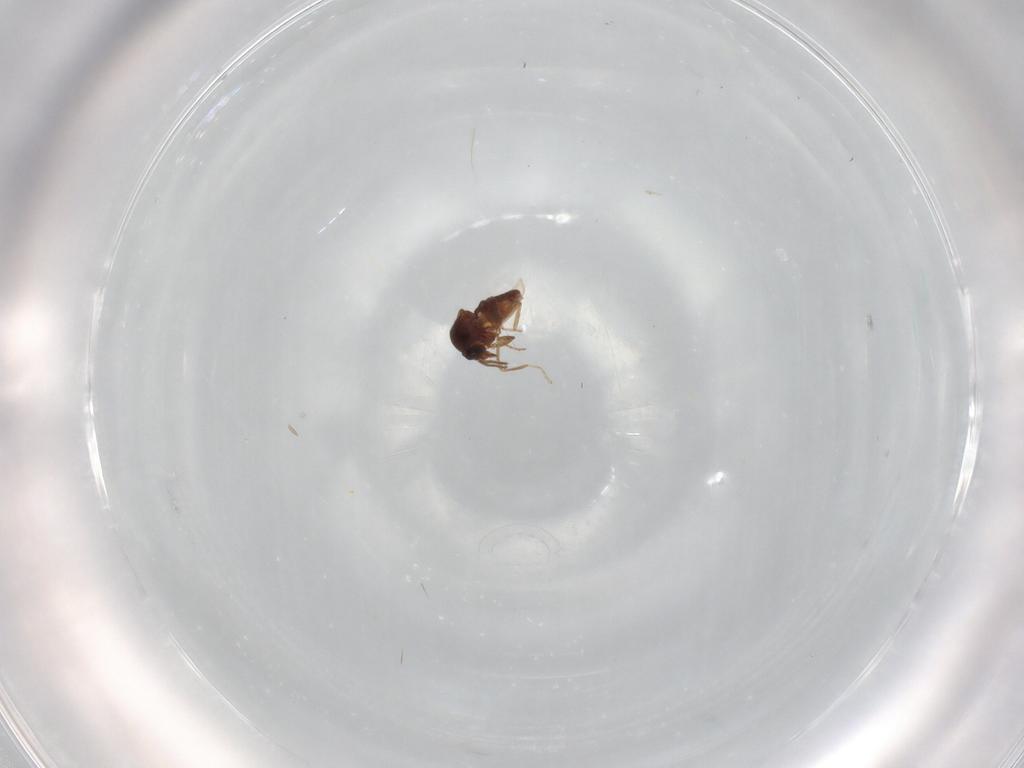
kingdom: Animalia
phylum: Arthropoda
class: Insecta
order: Diptera
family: Ceratopogonidae
